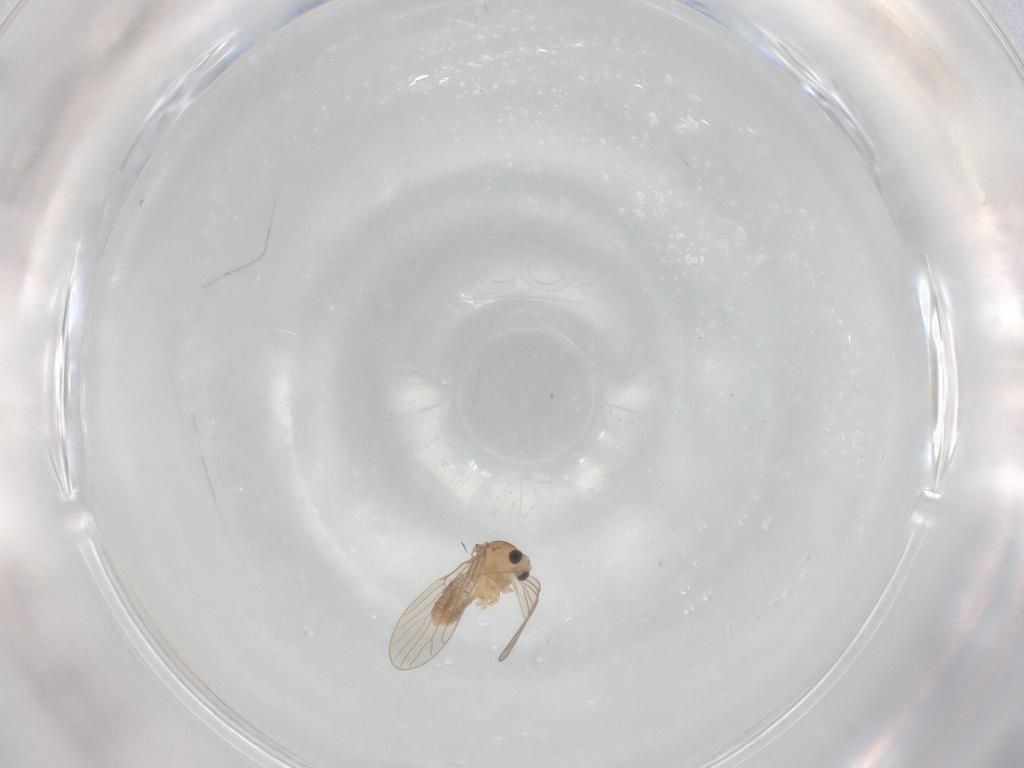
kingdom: Animalia
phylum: Arthropoda
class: Insecta
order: Diptera
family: Psychodidae
